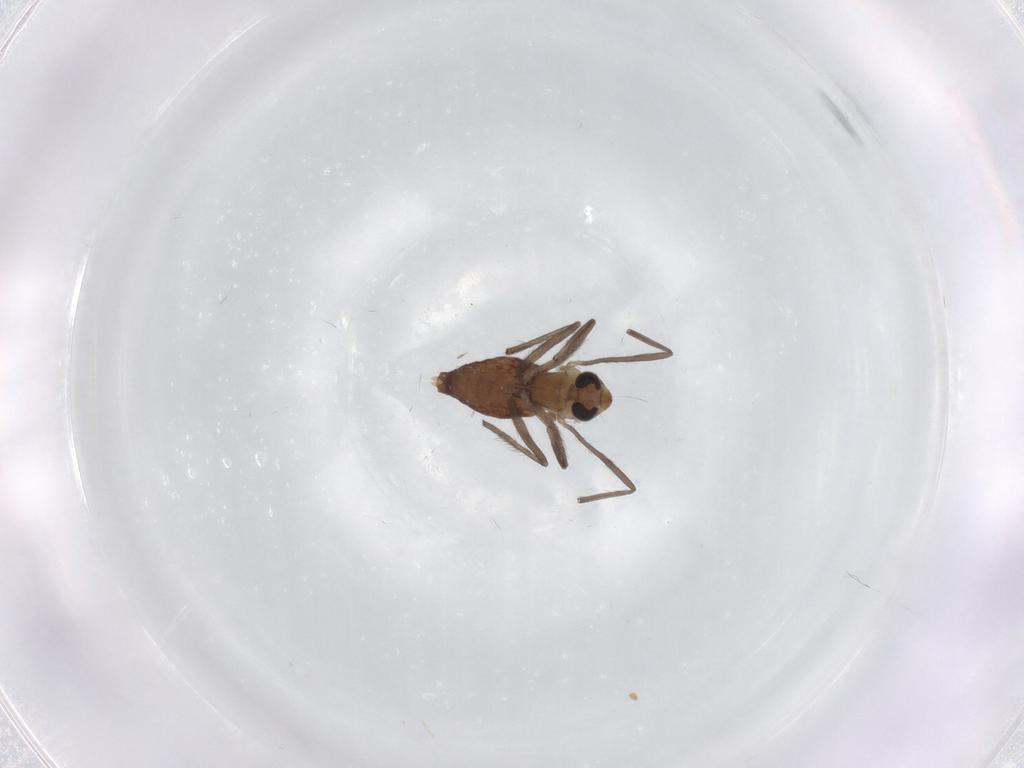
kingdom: Animalia
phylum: Arthropoda
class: Insecta
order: Diptera
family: Chironomidae
